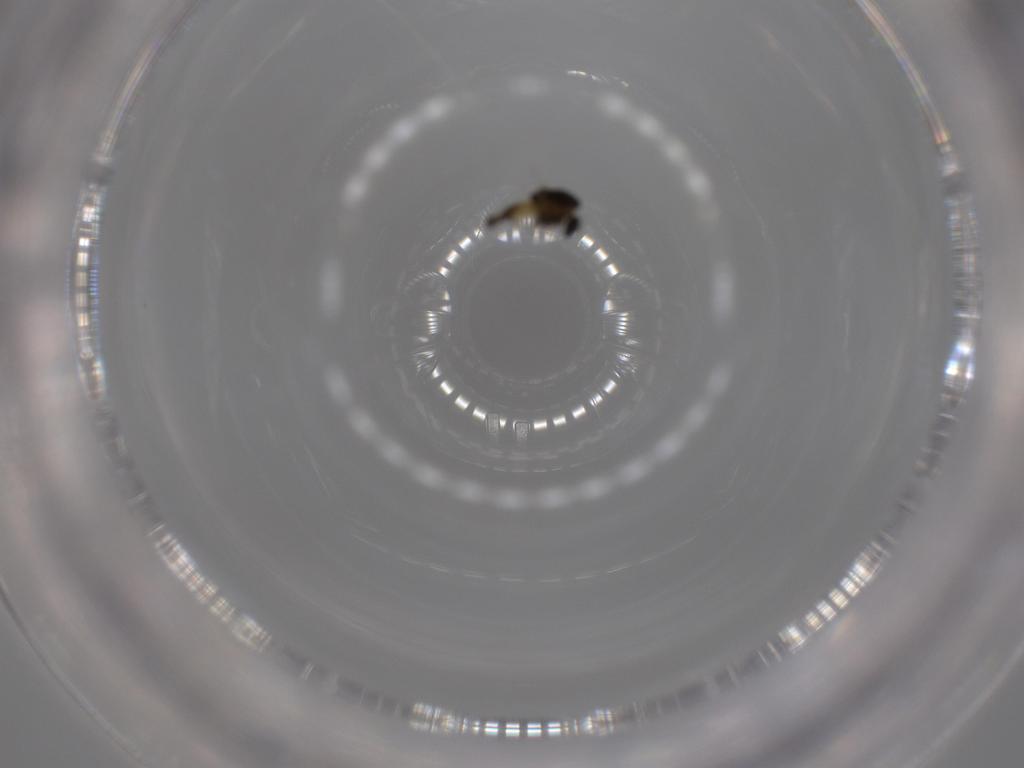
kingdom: Animalia
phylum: Arthropoda
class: Insecta
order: Diptera
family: Chironomidae
